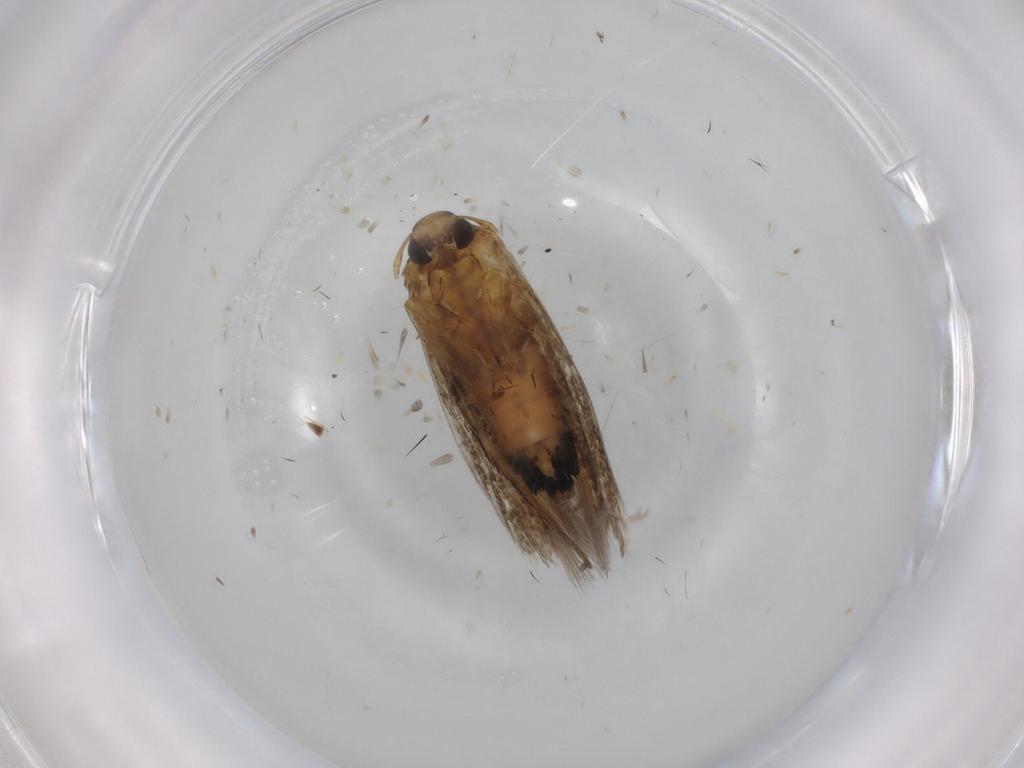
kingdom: Animalia
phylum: Arthropoda
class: Insecta
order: Lepidoptera
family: Cosmopterigidae
